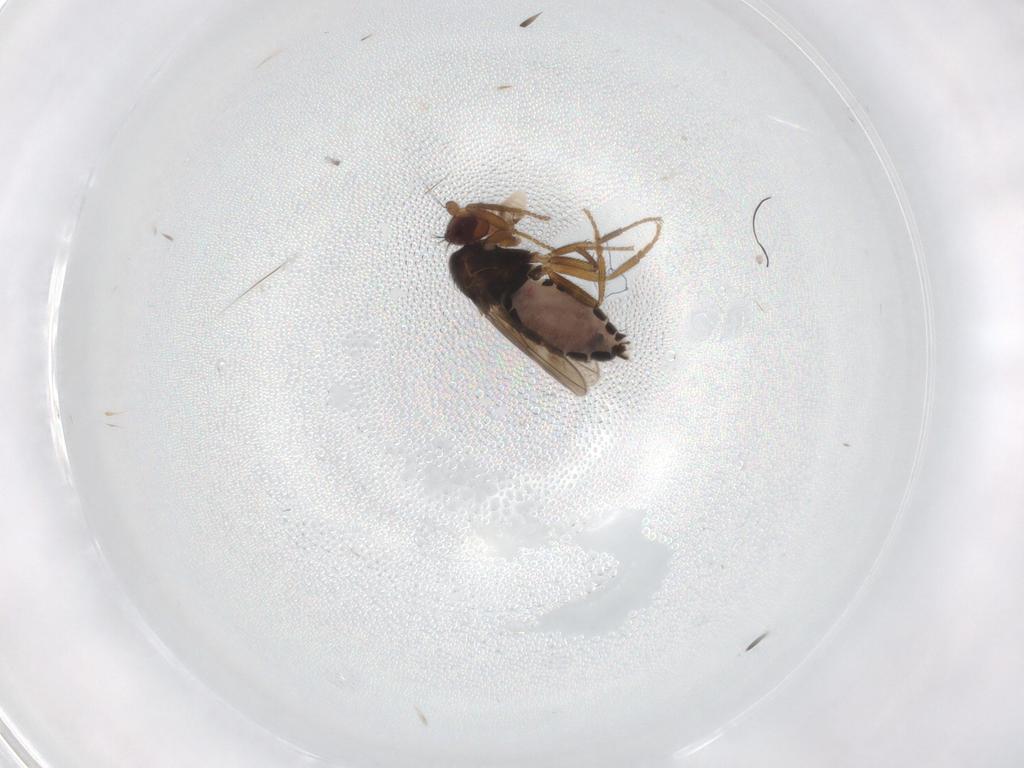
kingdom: Animalia
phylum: Arthropoda
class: Insecta
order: Diptera
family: Sphaeroceridae
